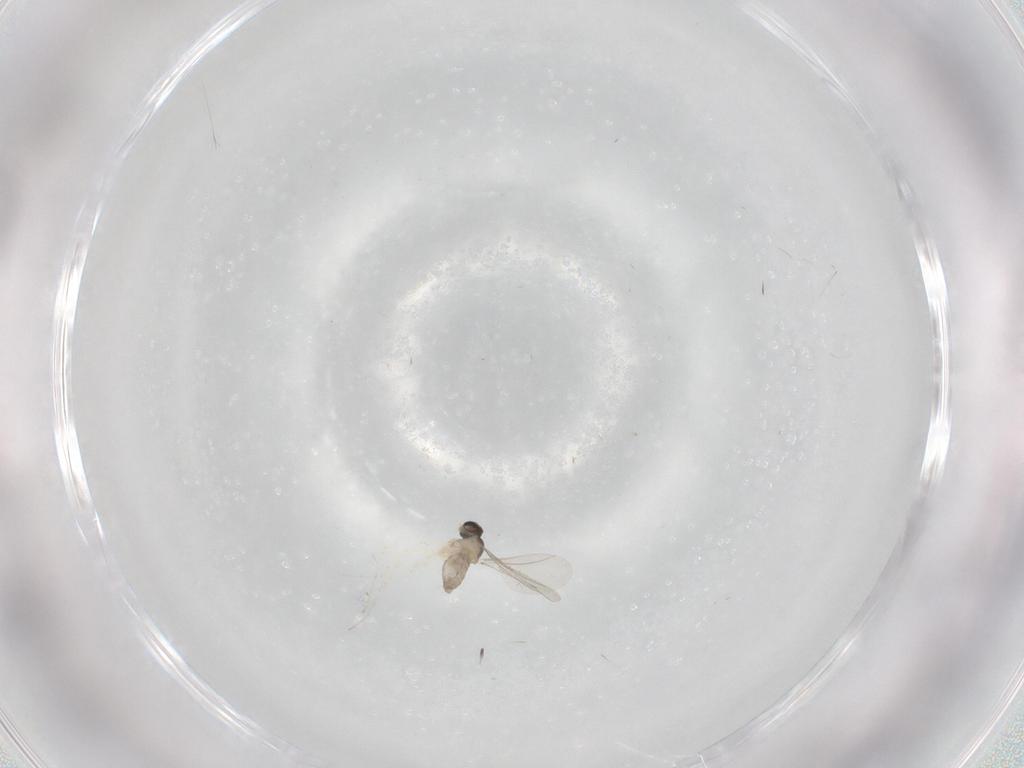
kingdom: Animalia
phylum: Arthropoda
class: Insecta
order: Diptera
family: Cecidomyiidae
